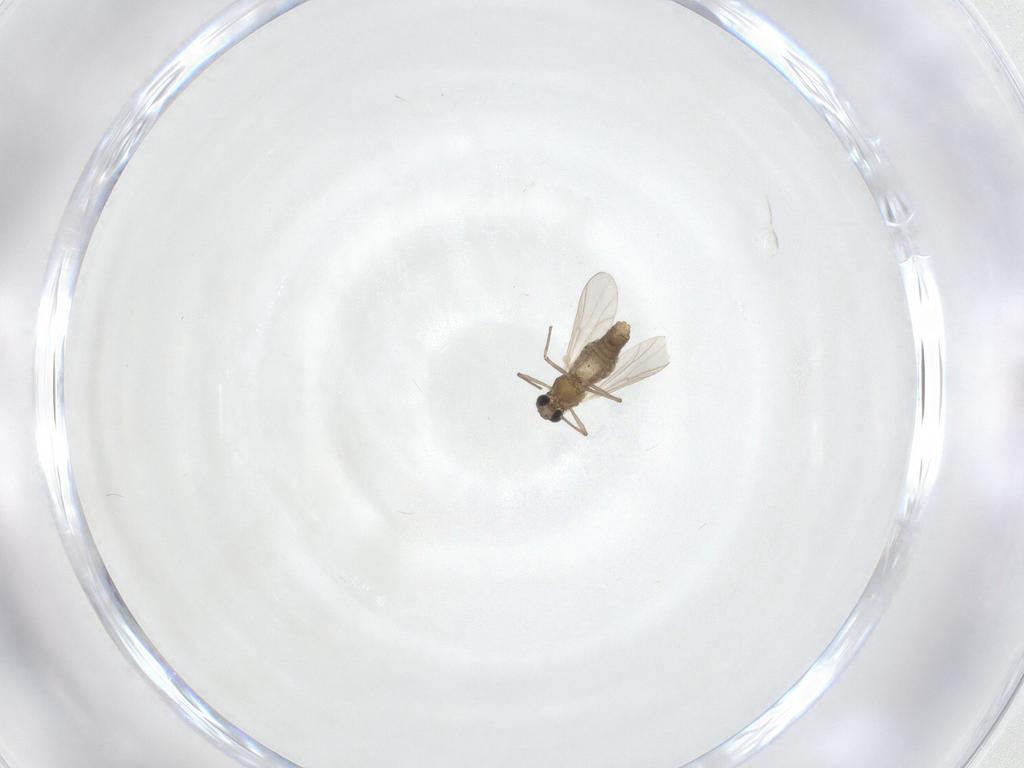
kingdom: Animalia
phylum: Arthropoda
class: Insecta
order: Diptera
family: Chironomidae
